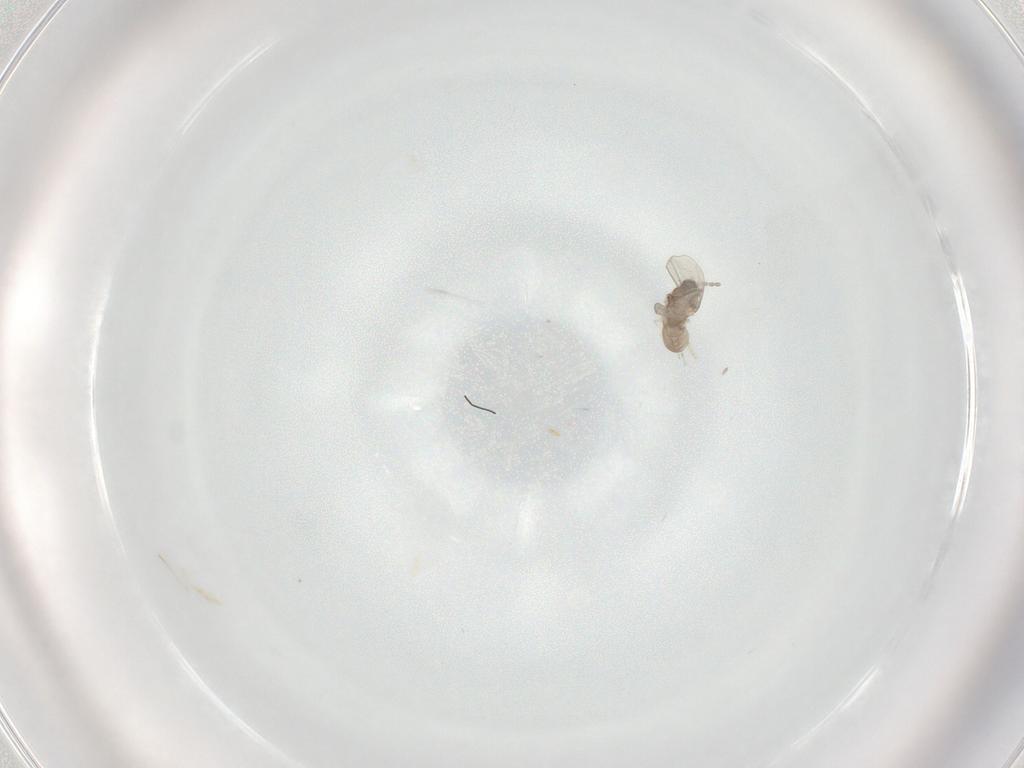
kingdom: Animalia
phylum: Arthropoda
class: Insecta
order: Diptera
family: Cecidomyiidae
